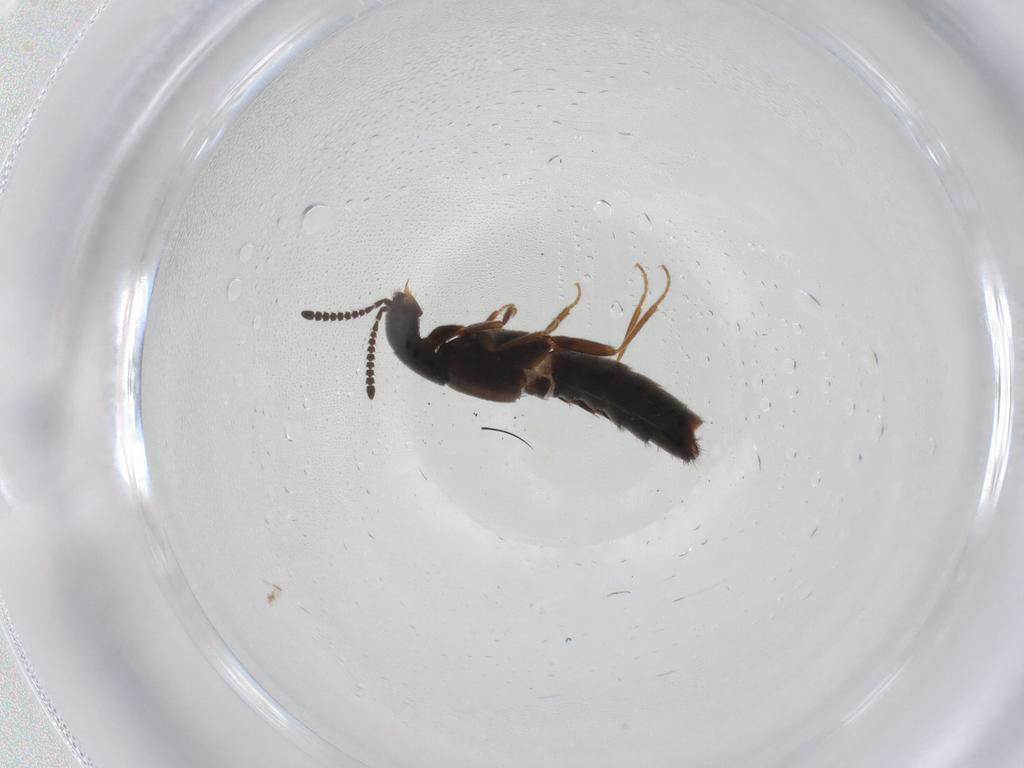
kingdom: Animalia
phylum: Arthropoda
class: Insecta
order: Coleoptera
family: Staphylinidae
